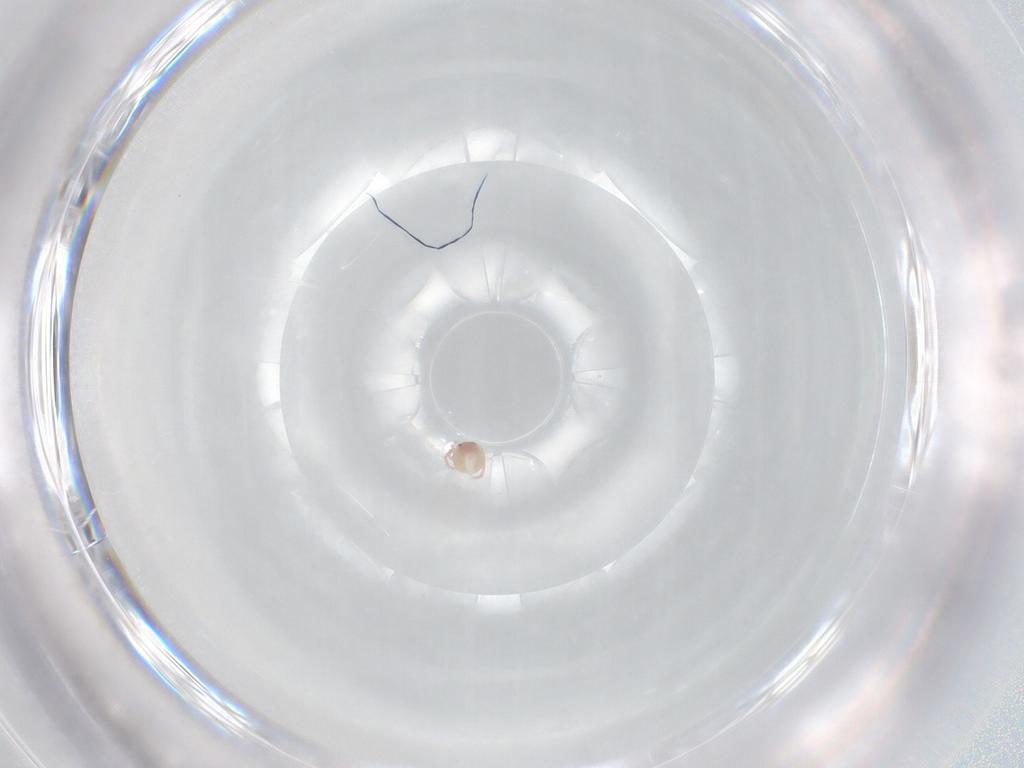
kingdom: Animalia
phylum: Arthropoda
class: Arachnida
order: Trombidiformes
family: Lebertiidae
